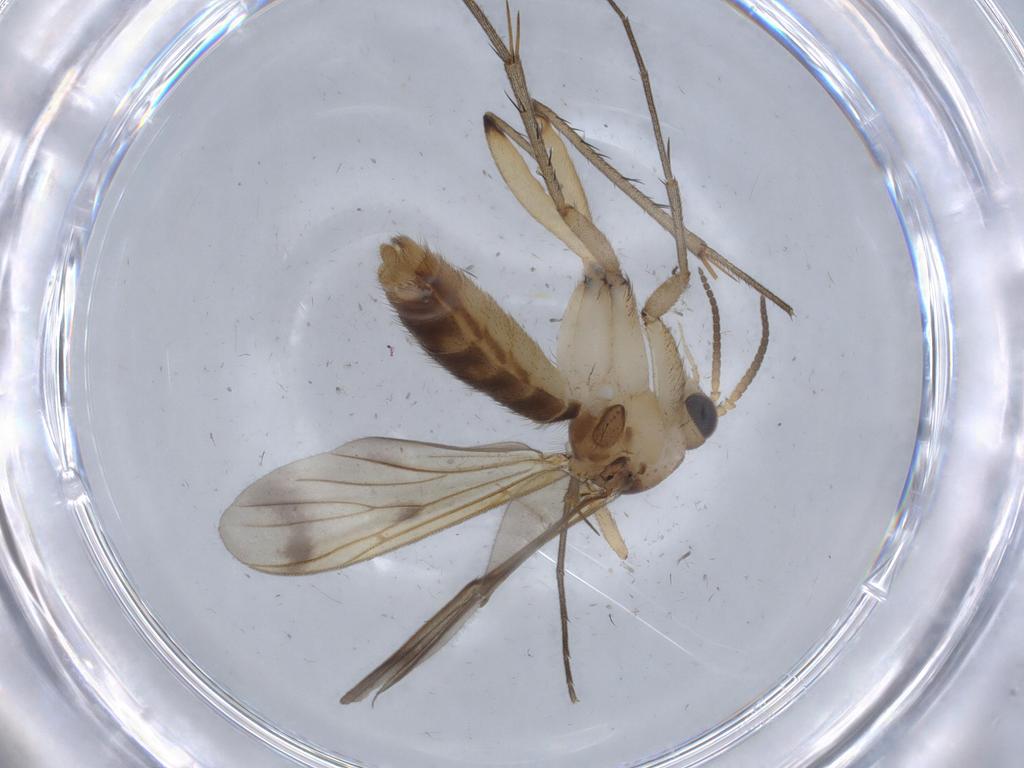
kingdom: Animalia
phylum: Arthropoda
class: Insecta
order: Diptera
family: Mycetophilidae
